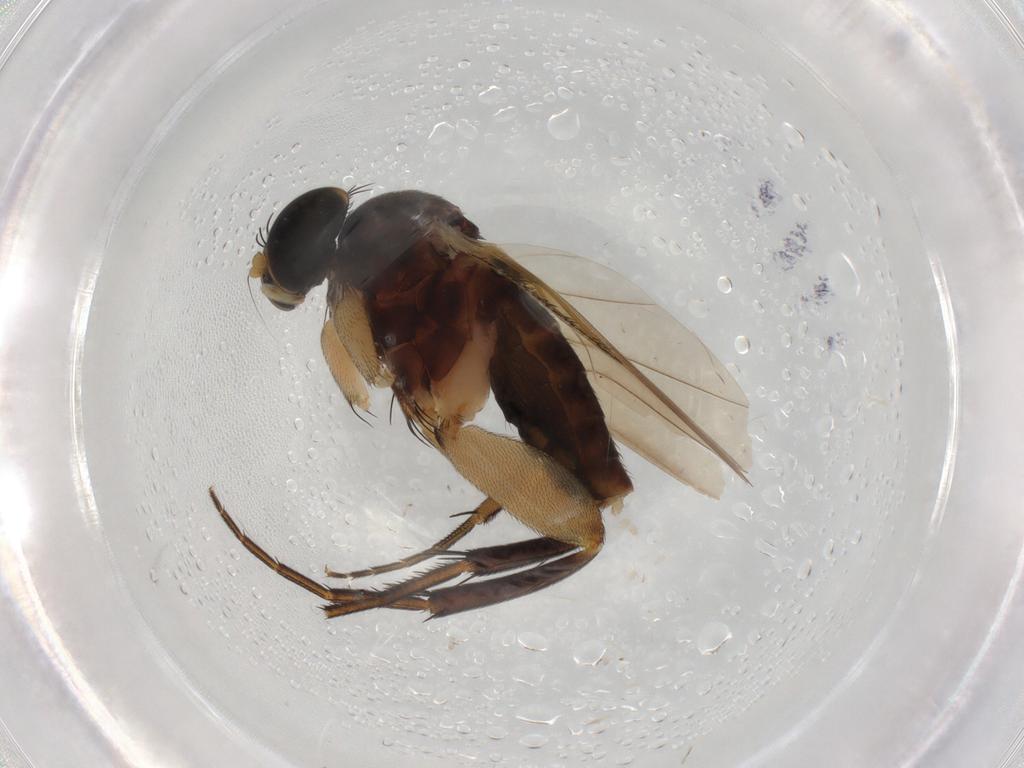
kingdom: Animalia
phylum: Arthropoda
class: Insecta
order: Diptera
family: Phoridae
